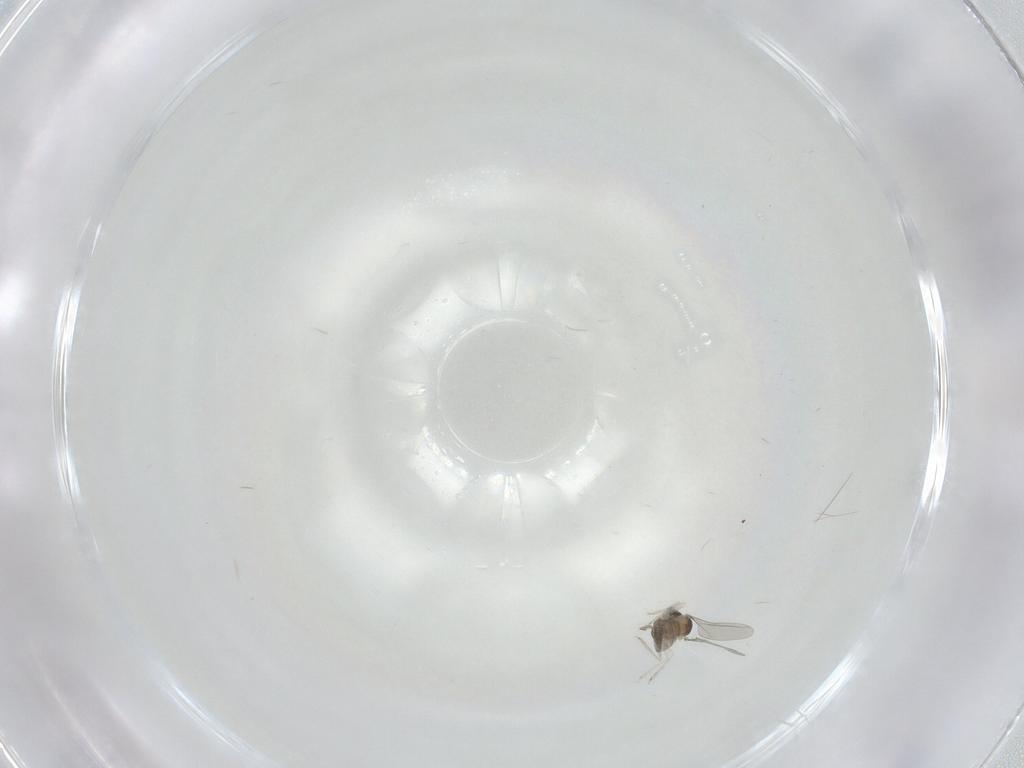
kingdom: Animalia
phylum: Arthropoda
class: Insecta
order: Diptera
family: Cecidomyiidae
